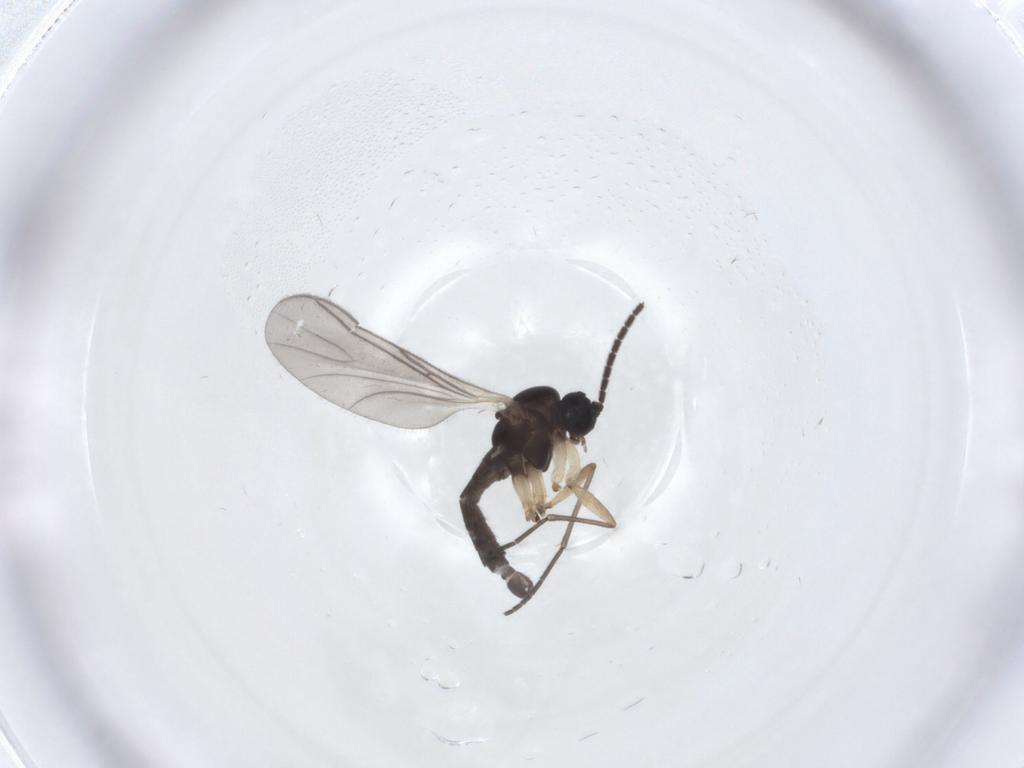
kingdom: Animalia
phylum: Arthropoda
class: Insecta
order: Diptera
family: Sciaridae
